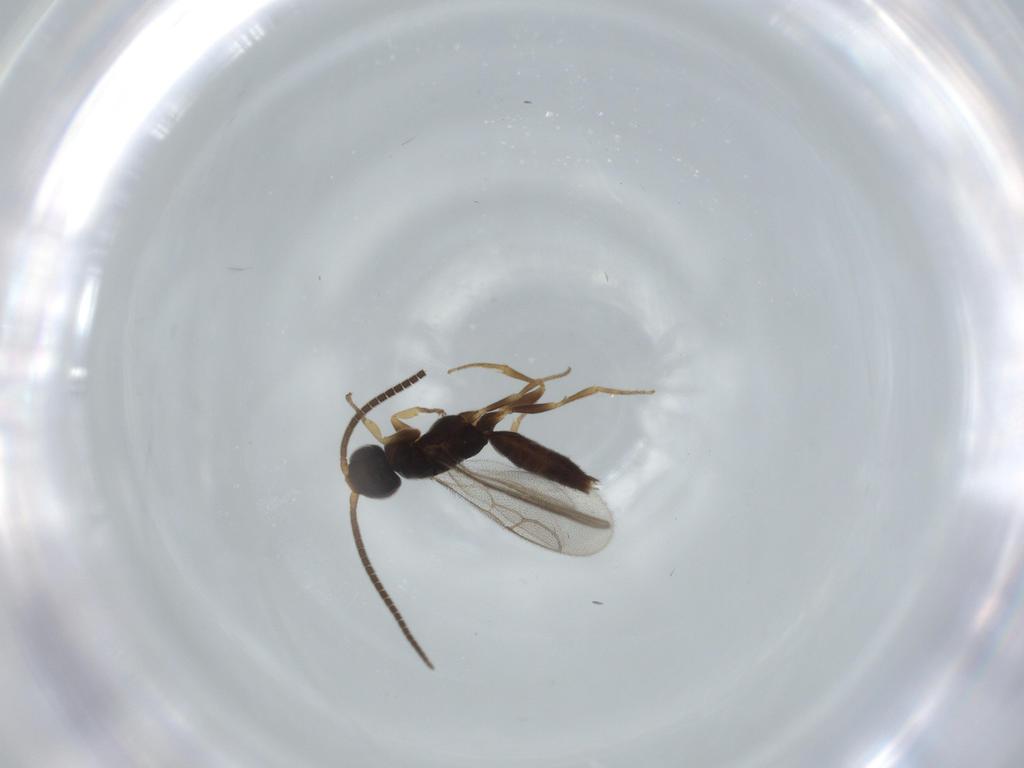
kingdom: Animalia
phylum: Arthropoda
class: Insecta
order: Hymenoptera
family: Sclerogibbidae
